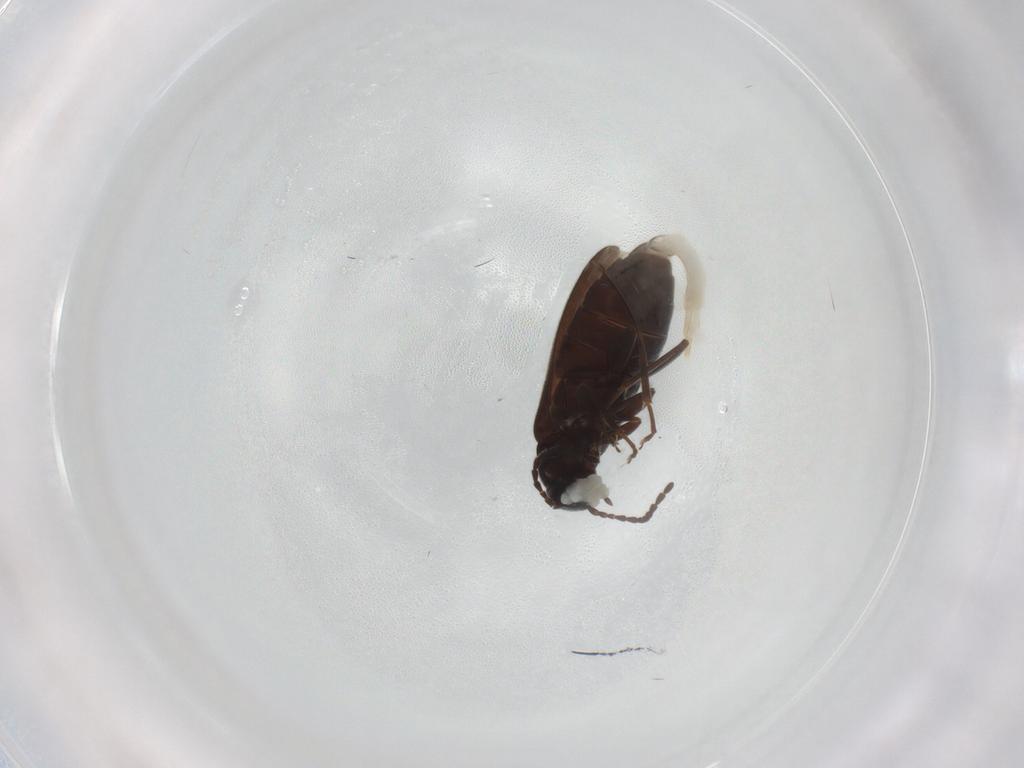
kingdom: Animalia
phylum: Arthropoda
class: Insecta
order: Coleoptera
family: Scraptiidae
